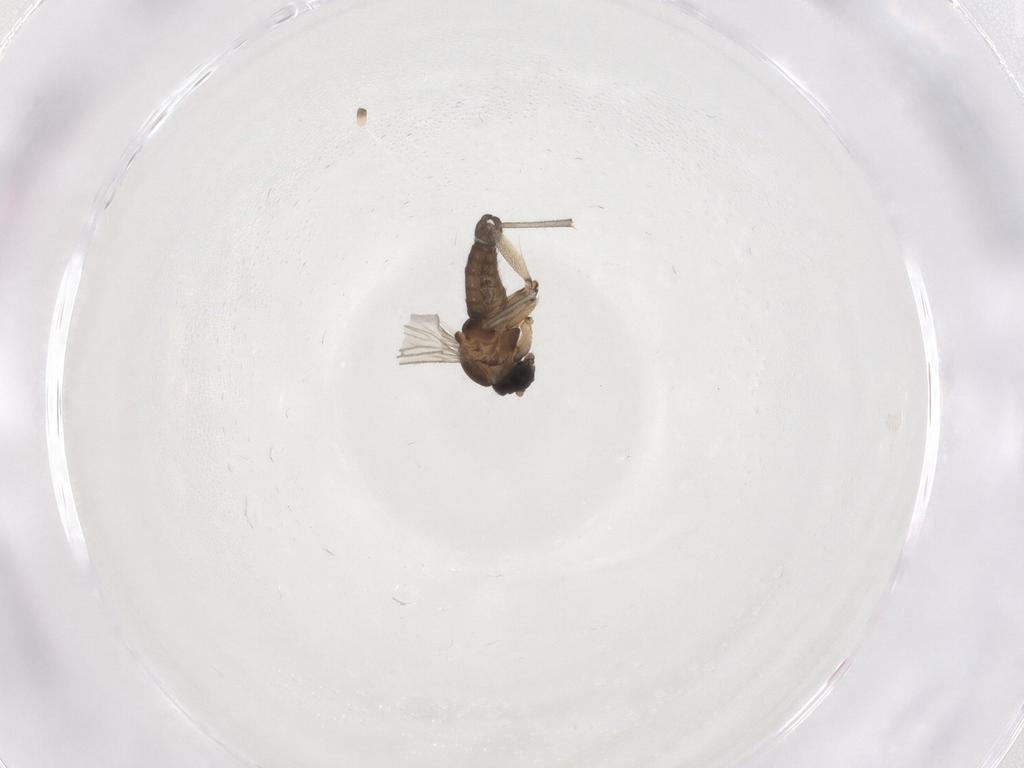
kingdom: Animalia
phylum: Arthropoda
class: Insecta
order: Diptera
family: Sciaridae
